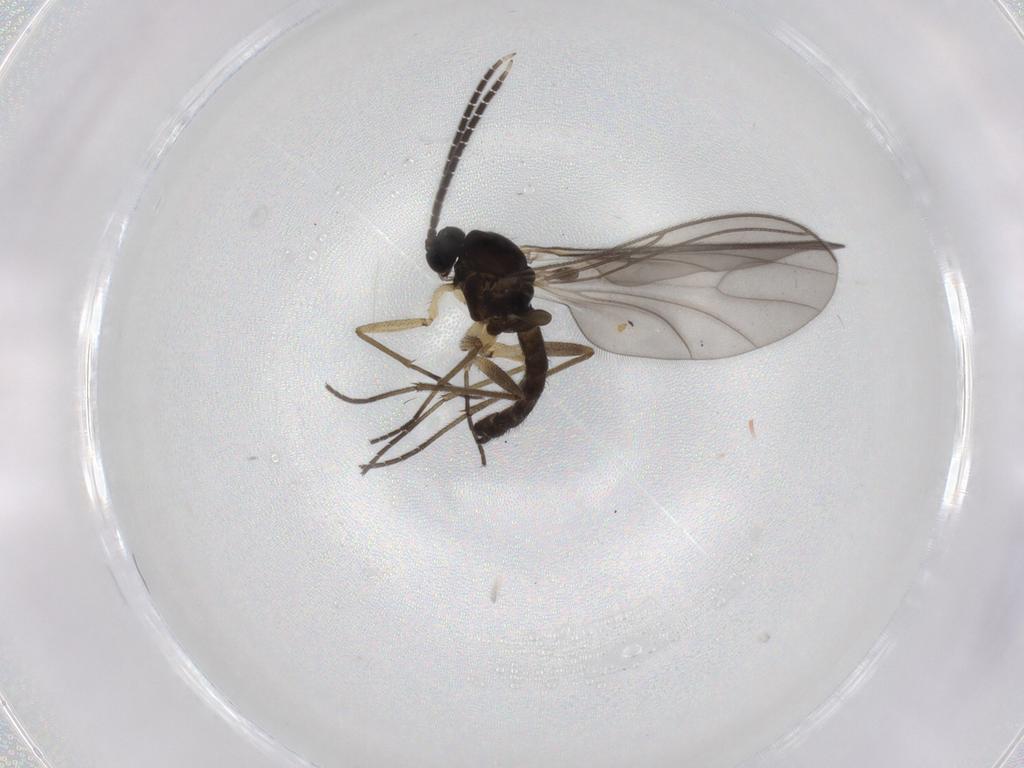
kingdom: Animalia
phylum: Arthropoda
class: Insecta
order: Diptera
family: Sciaridae
